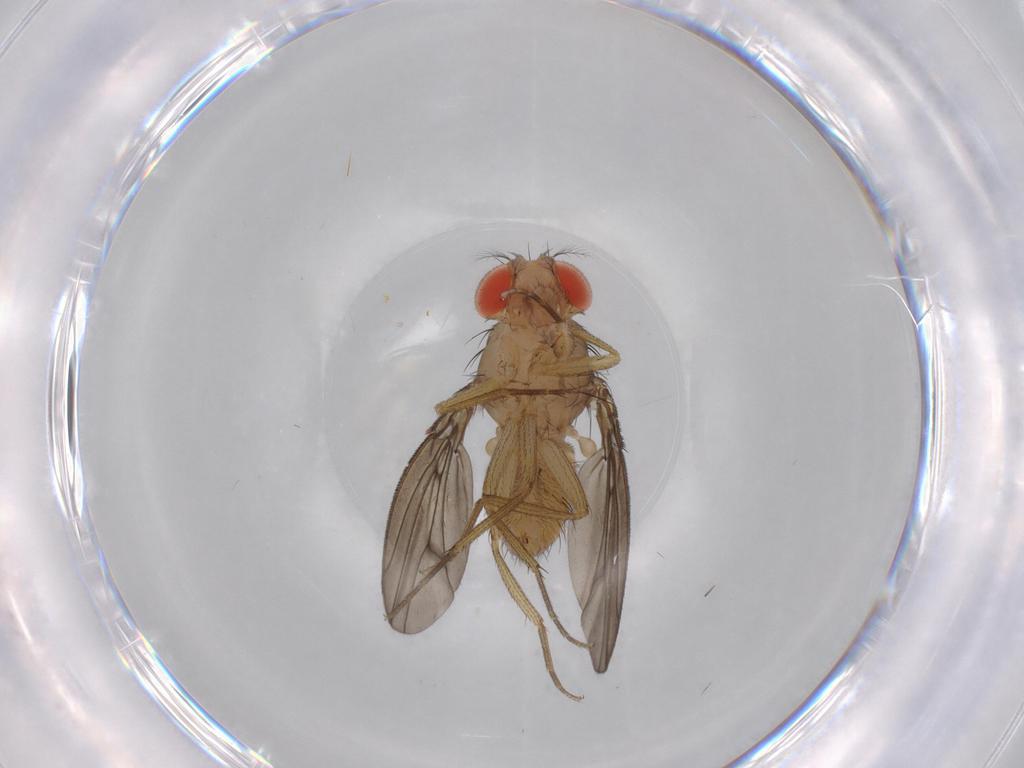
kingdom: Animalia
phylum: Arthropoda
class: Insecta
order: Diptera
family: Drosophilidae
